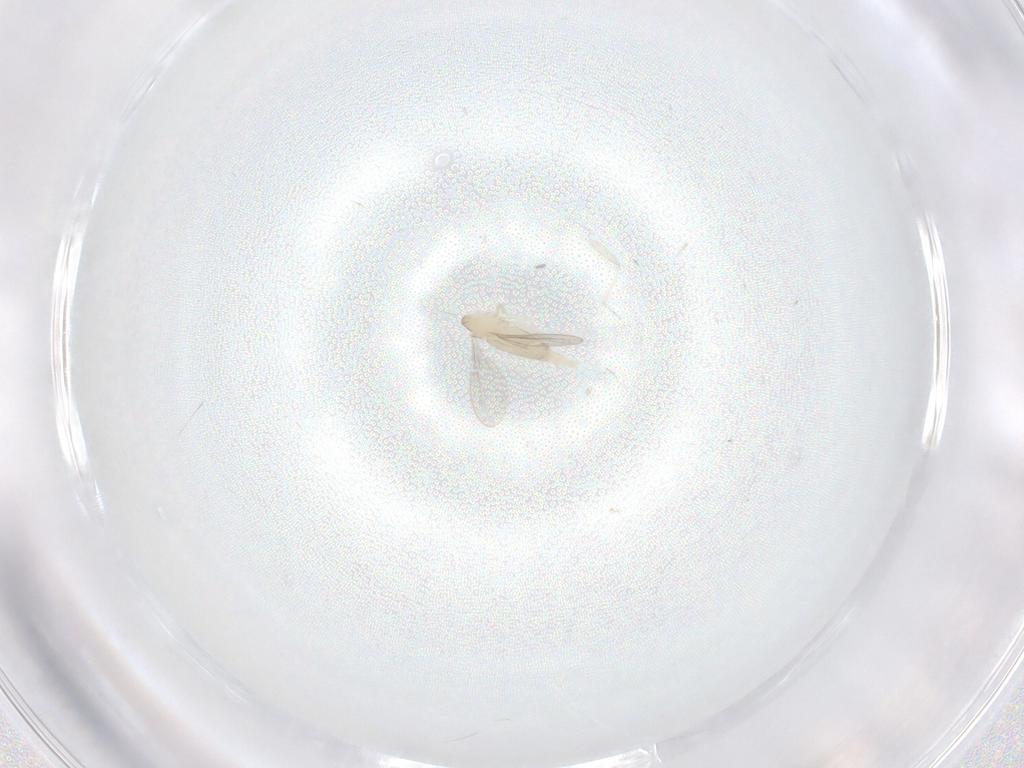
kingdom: Animalia
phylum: Arthropoda
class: Insecta
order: Diptera
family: Cecidomyiidae
